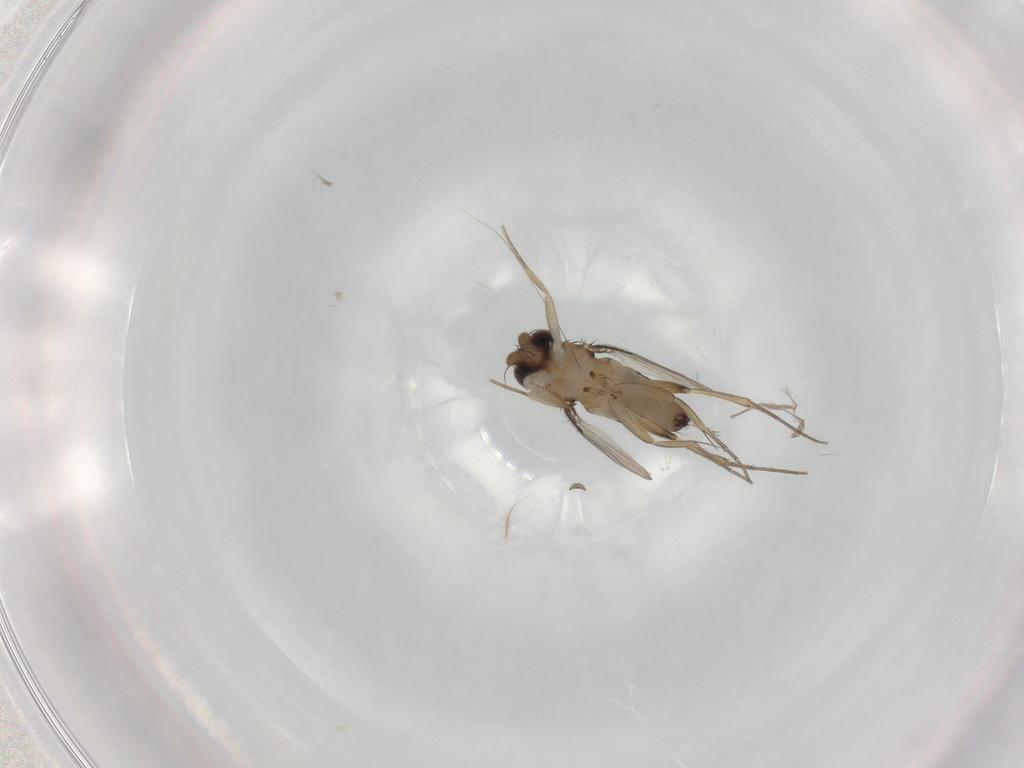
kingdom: Animalia
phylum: Arthropoda
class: Insecta
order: Diptera
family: Phoridae
